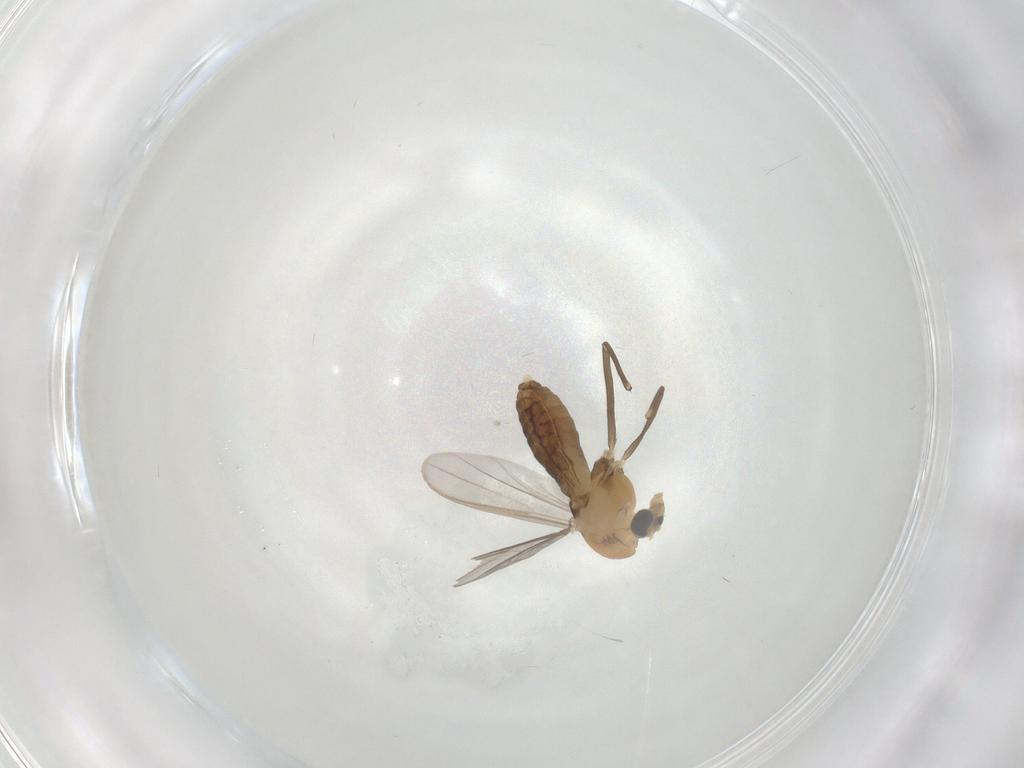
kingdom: Animalia
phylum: Arthropoda
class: Insecta
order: Diptera
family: Chironomidae
